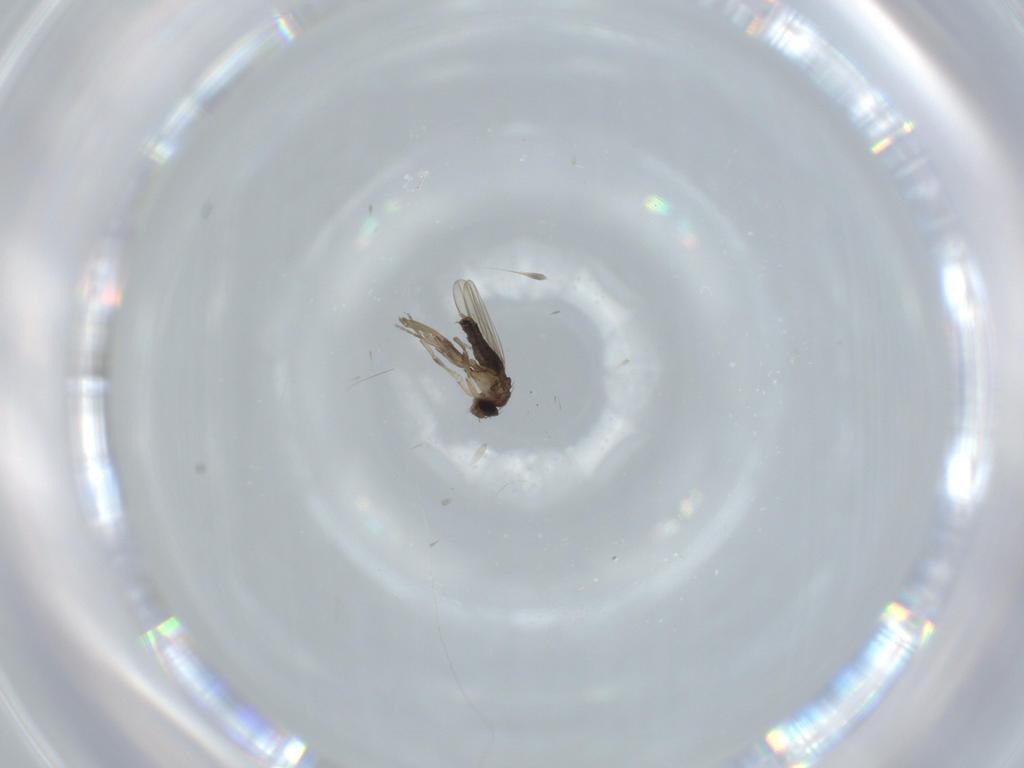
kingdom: Animalia
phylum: Arthropoda
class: Insecta
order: Diptera
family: Phoridae
